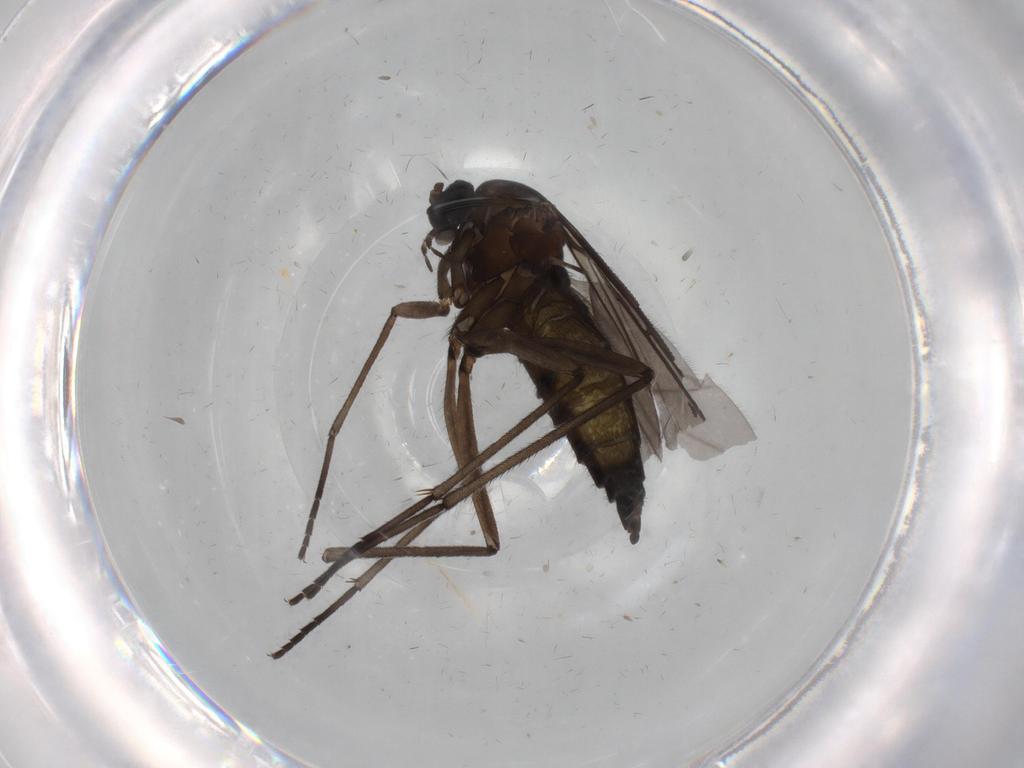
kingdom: Animalia
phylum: Arthropoda
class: Insecta
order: Diptera
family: Sciaridae
